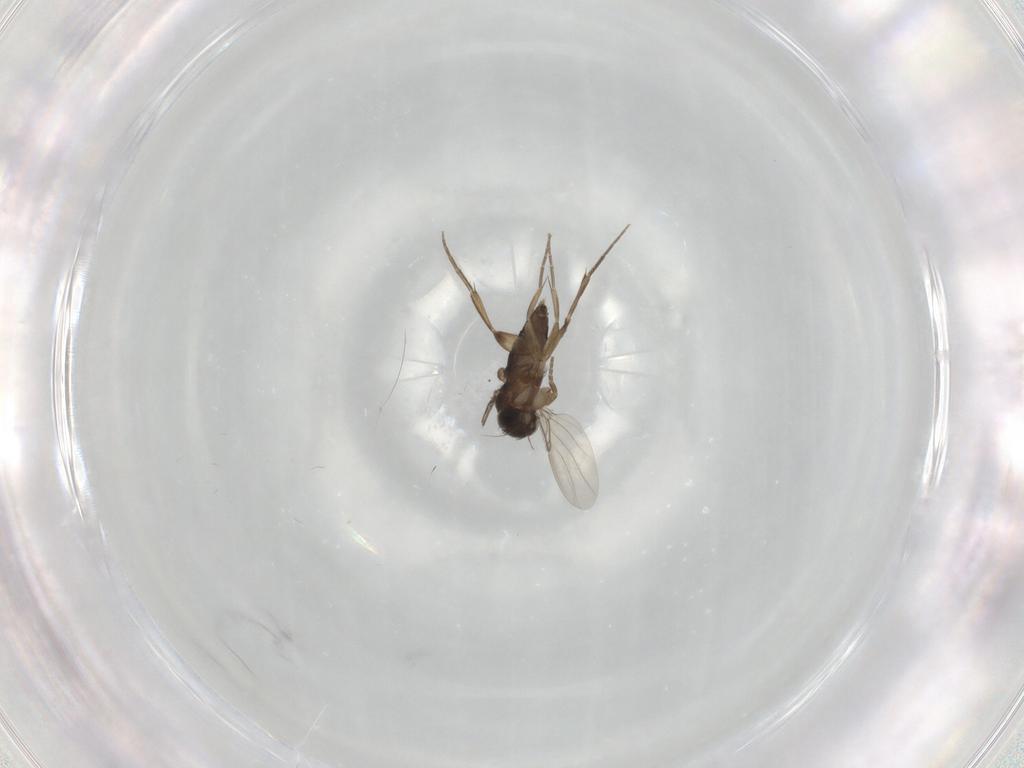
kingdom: Animalia
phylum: Arthropoda
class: Insecta
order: Diptera
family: Phoridae
